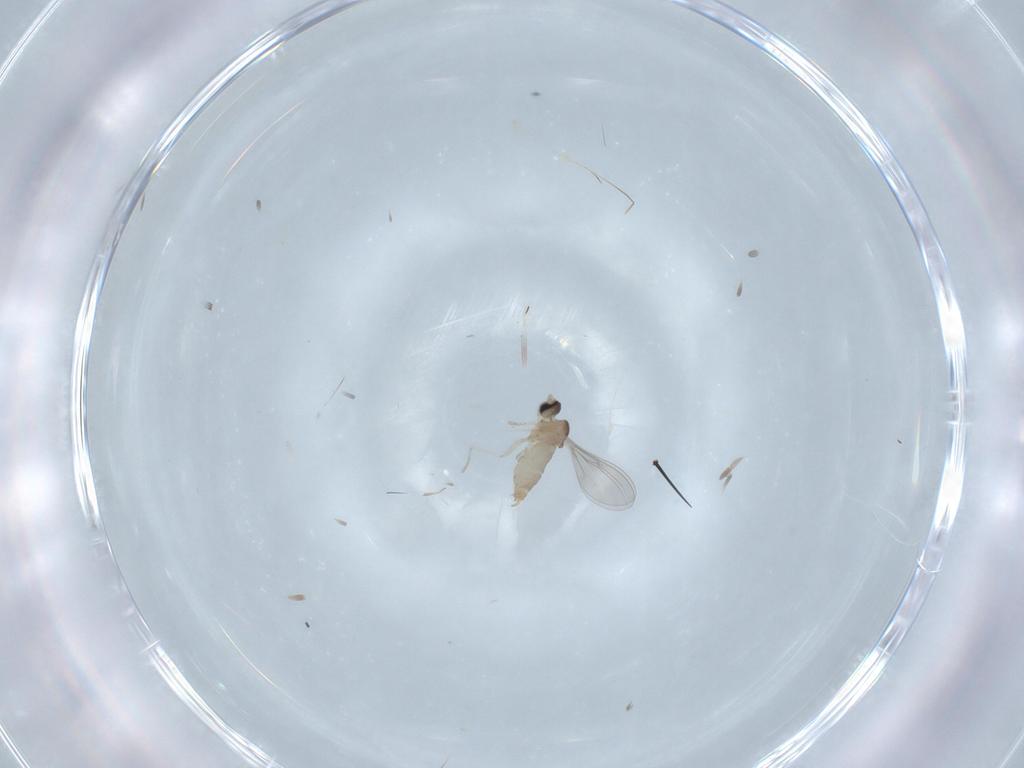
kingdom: Animalia
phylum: Arthropoda
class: Insecta
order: Diptera
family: Cecidomyiidae
